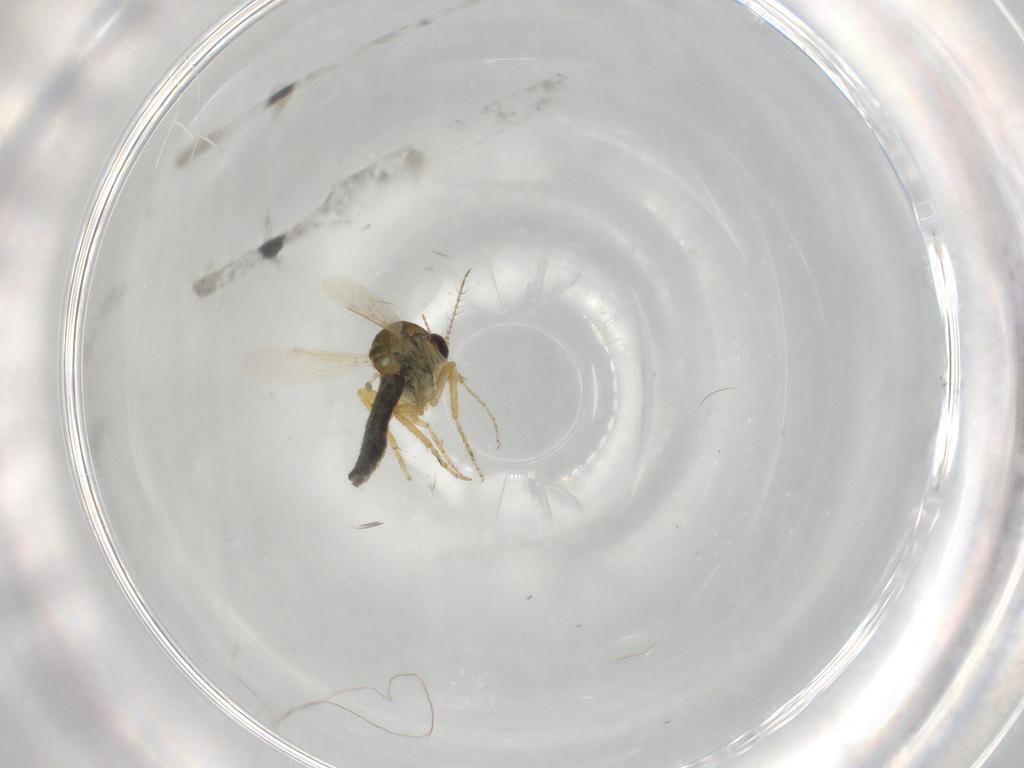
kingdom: Animalia
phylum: Arthropoda
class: Insecta
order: Diptera
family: Ceratopogonidae
